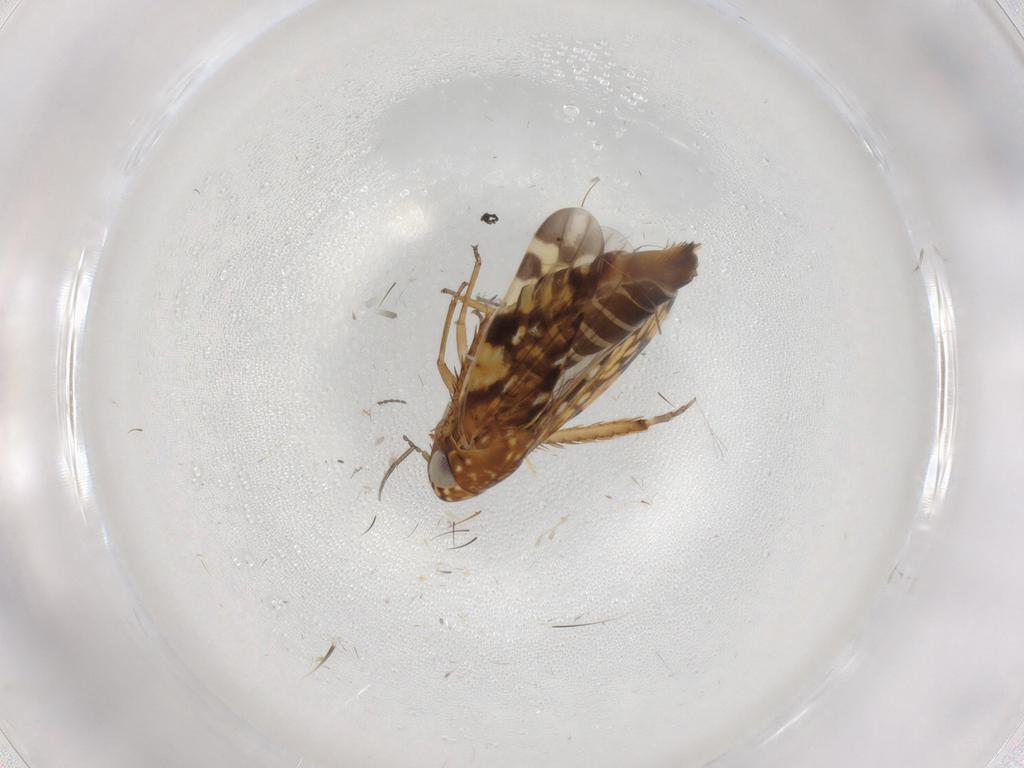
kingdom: Animalia
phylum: Arthropoda
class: Insecta
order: Hemiptera
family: Cicadellidae
